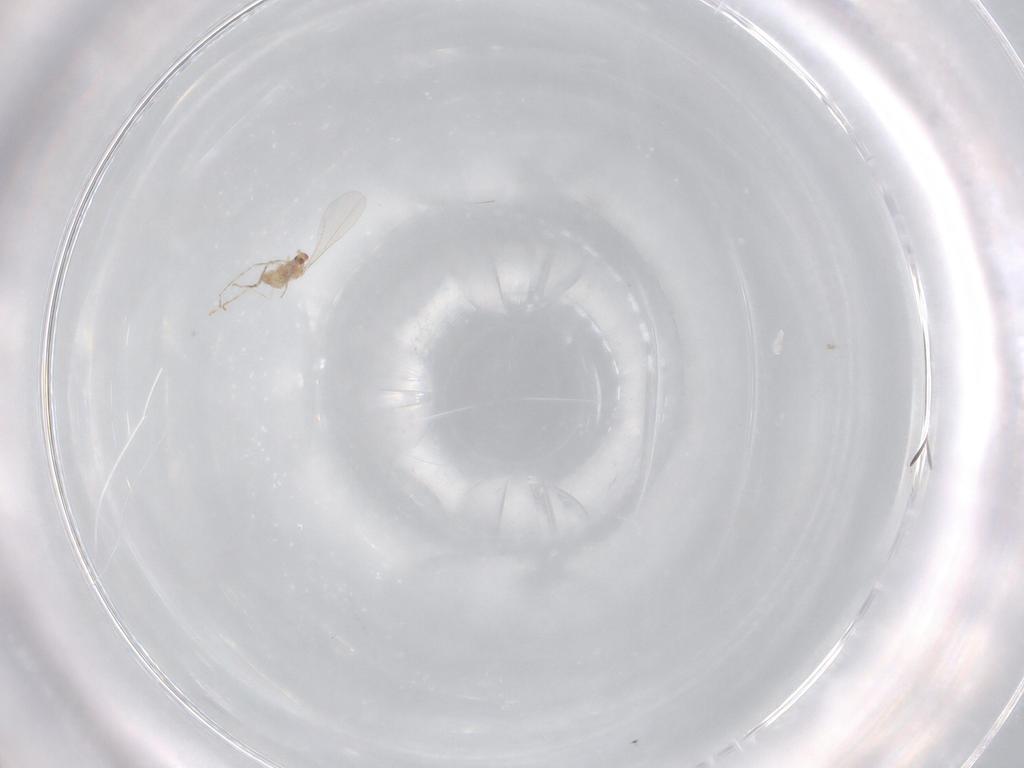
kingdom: Animalia
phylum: Arthropoda
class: Insecta
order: Diptera
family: Cecidomyiidae
